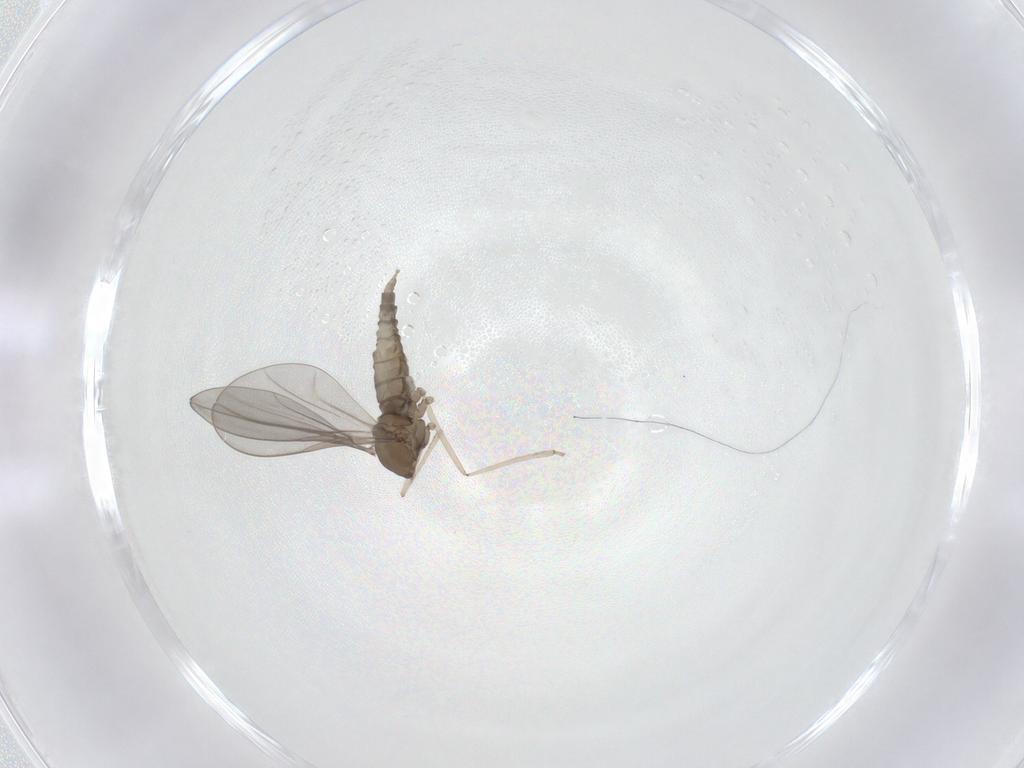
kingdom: Animalia
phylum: Arthropoda
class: Insecta
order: Diptera
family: Cecidomyiidae
